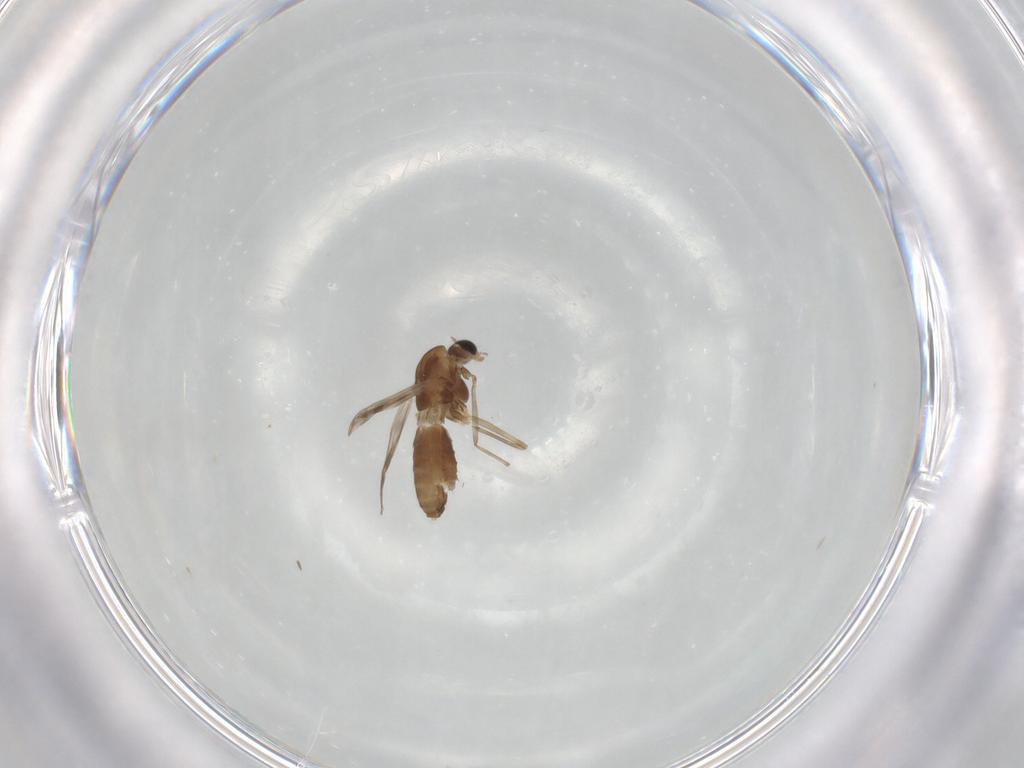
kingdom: Animalia
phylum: Arthropoda
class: Insecta
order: Diptera
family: Chironomidae
